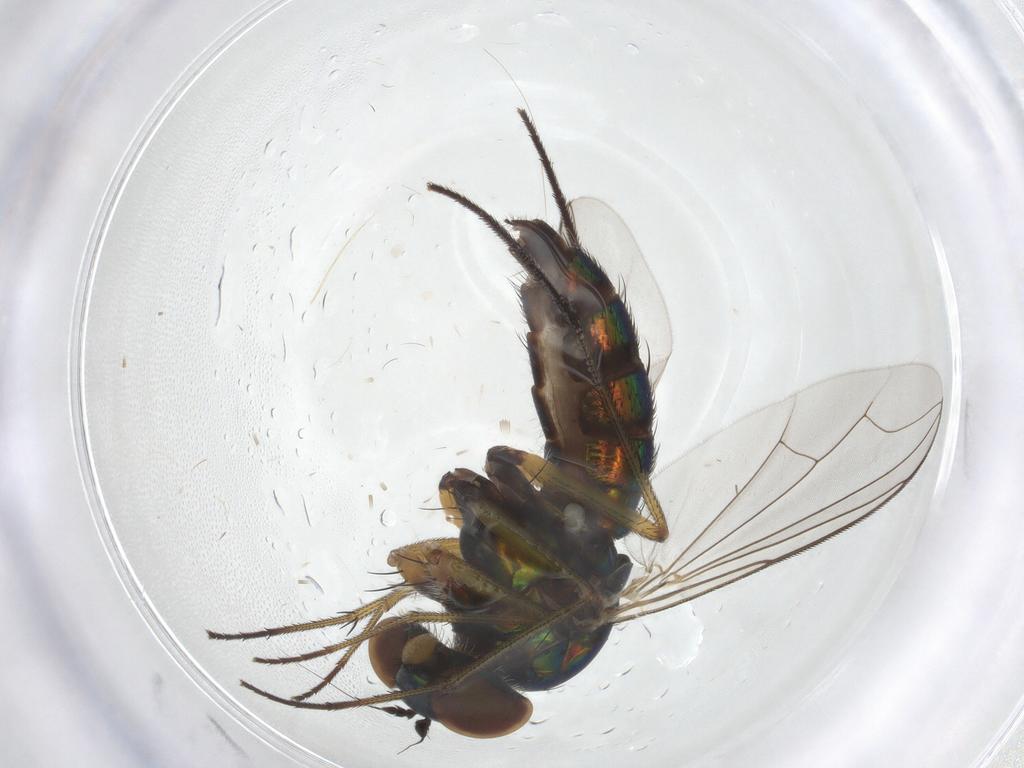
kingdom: Animalia
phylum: Arthropoda
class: Insecta
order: Diptera
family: Dolichopodidae
